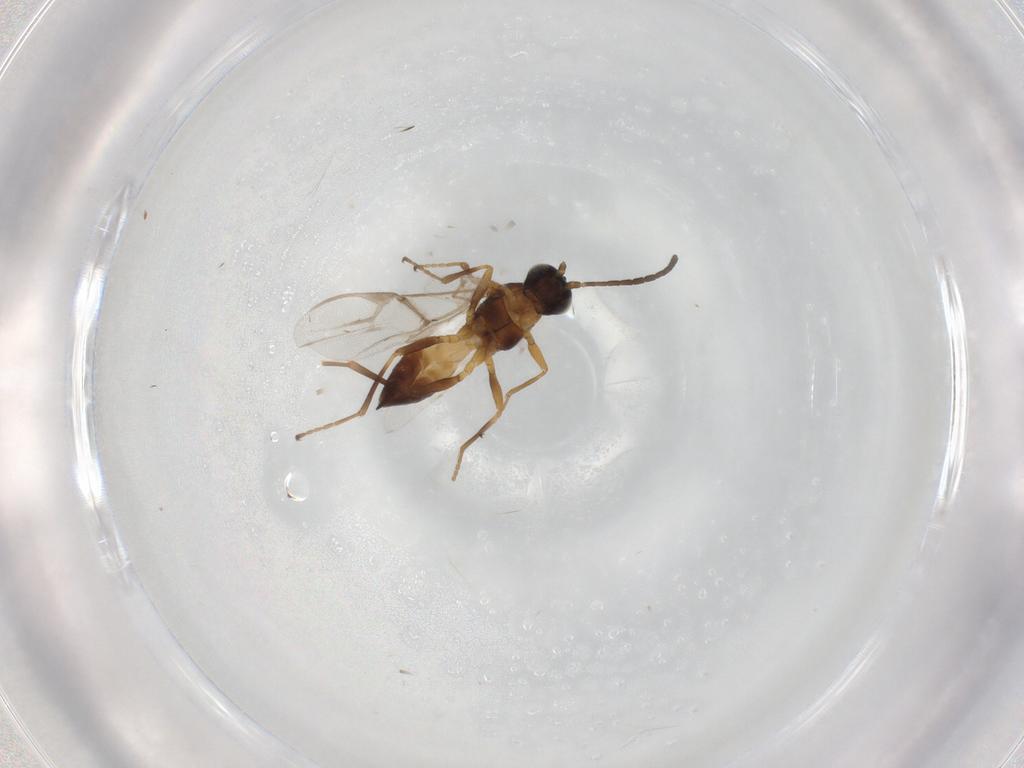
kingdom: Animalia
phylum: Arthropoda
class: Insecta
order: Hymenoptera
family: Braconidae
